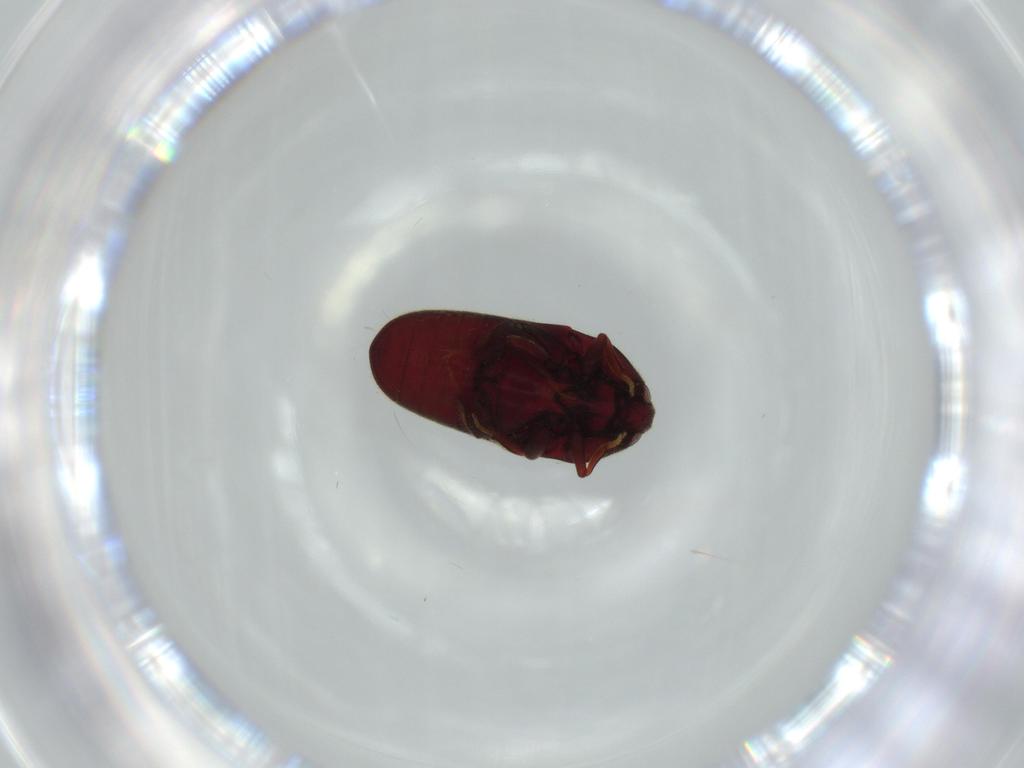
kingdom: Animalia
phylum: Arthropoda
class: Insecta
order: Coleoptera
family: Throscidae
